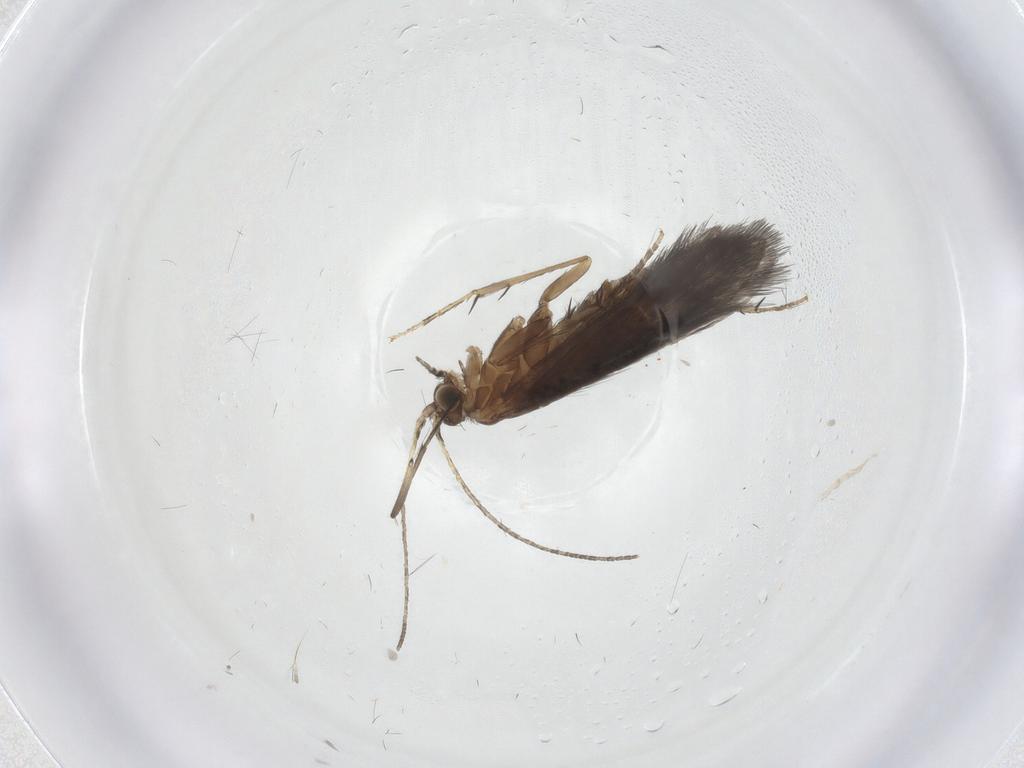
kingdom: Animalia
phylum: Arthropoda
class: Insecta
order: Trichoptera
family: Glossosomatidae
